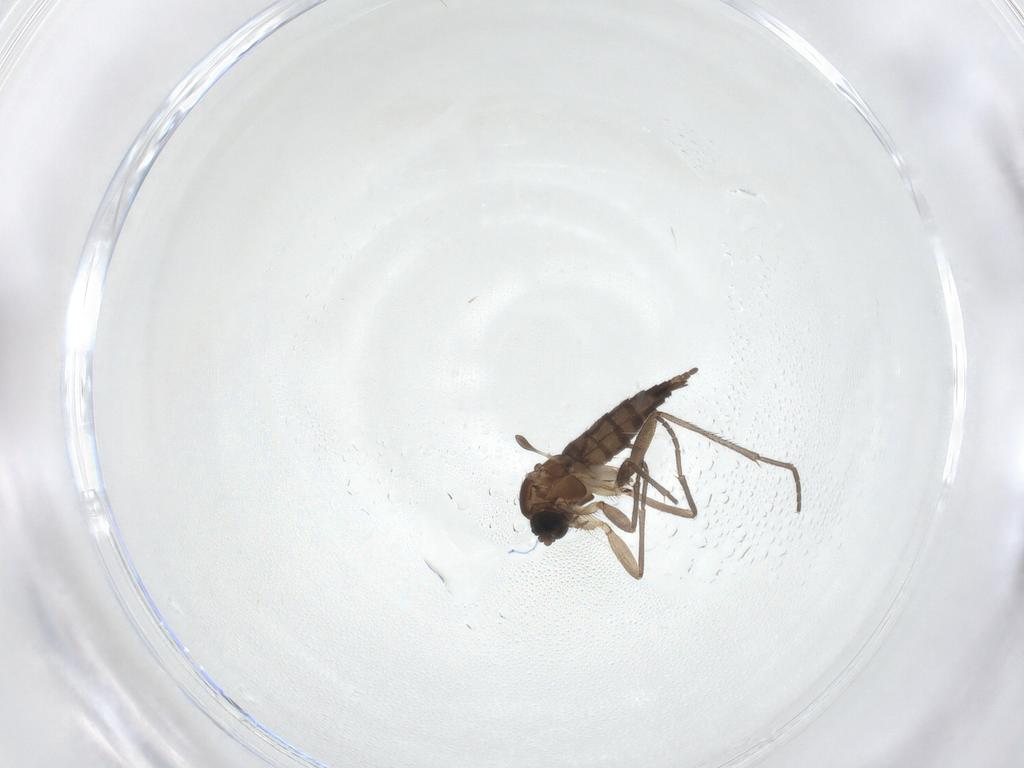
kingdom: Animalia
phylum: Arthropoda
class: Insecta
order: Diptera
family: Sciaridae
